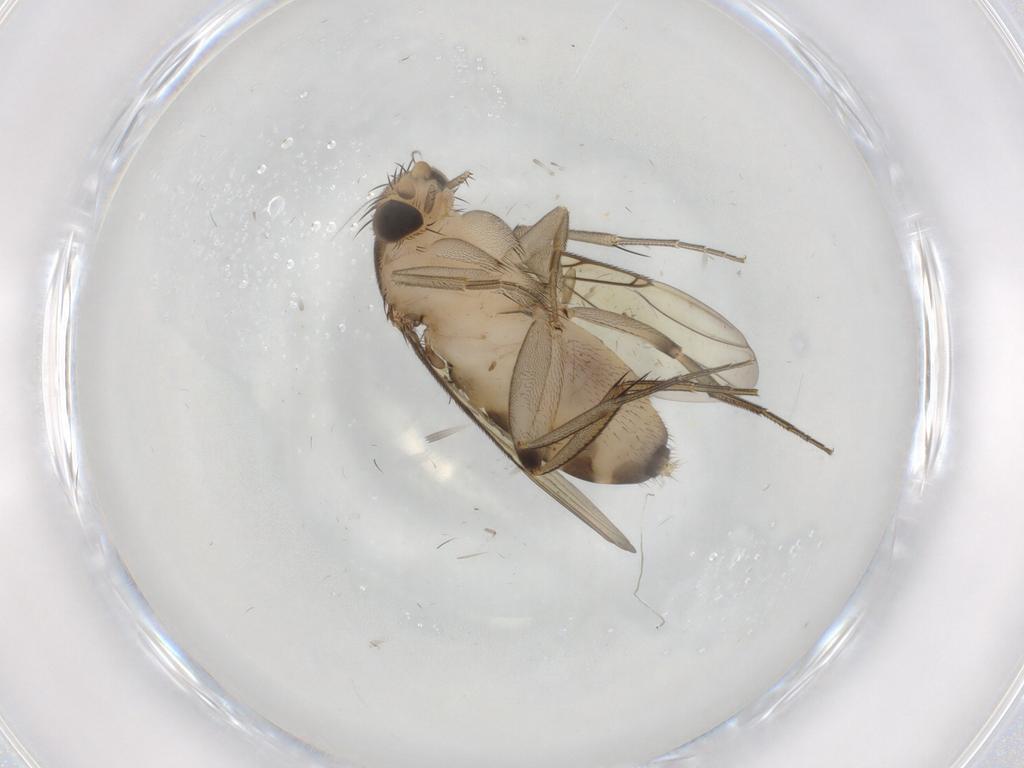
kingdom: Animalia
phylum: Arthropoda
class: Insecta
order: Diptera
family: Phoridae
